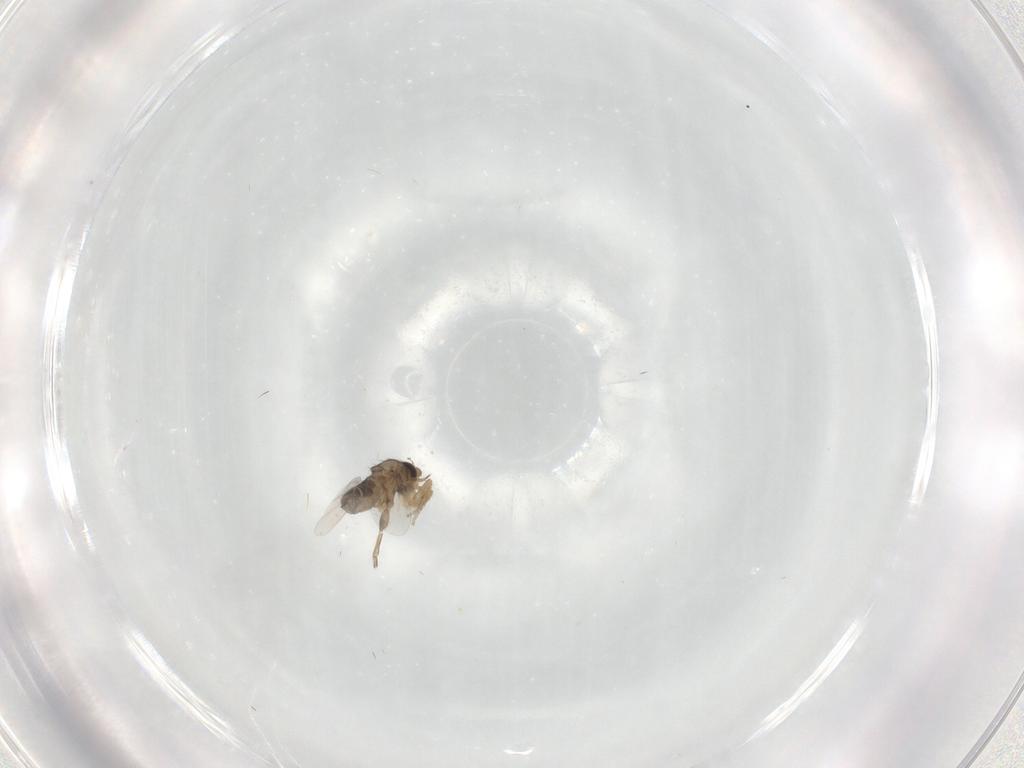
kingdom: Animalia
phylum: Arthropoda
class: Insecta
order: Diptera
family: Phoridae
